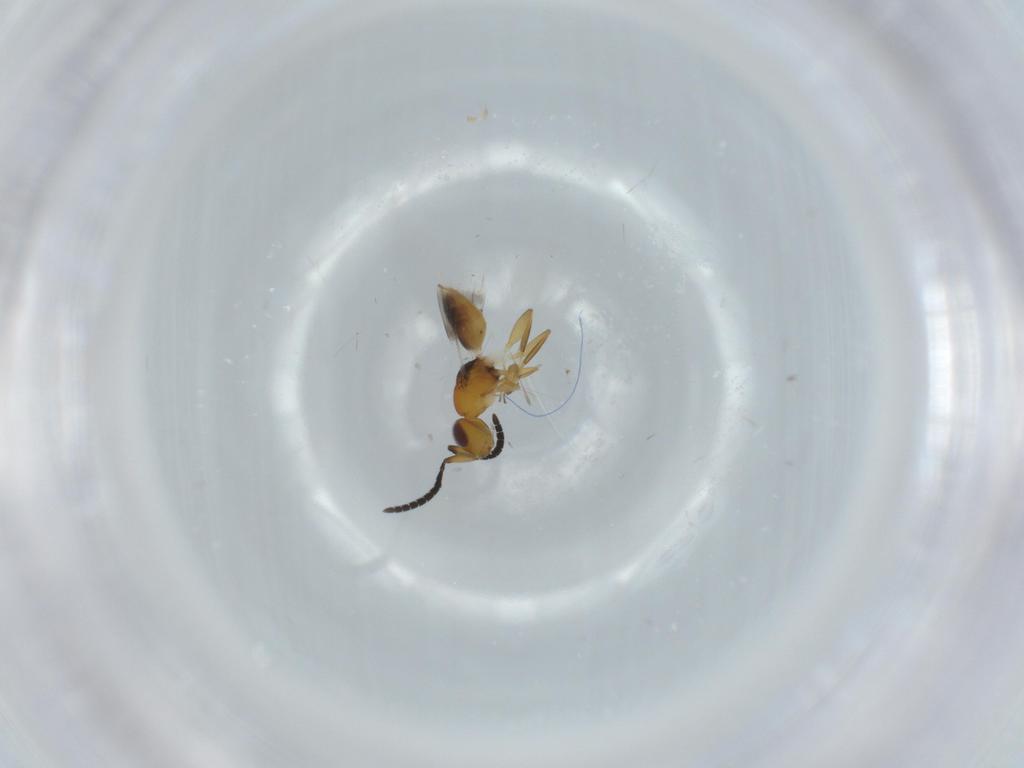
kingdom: Animalia
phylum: Arthropoda
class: Insecta
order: Hymenoptera
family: Megaspilidae
